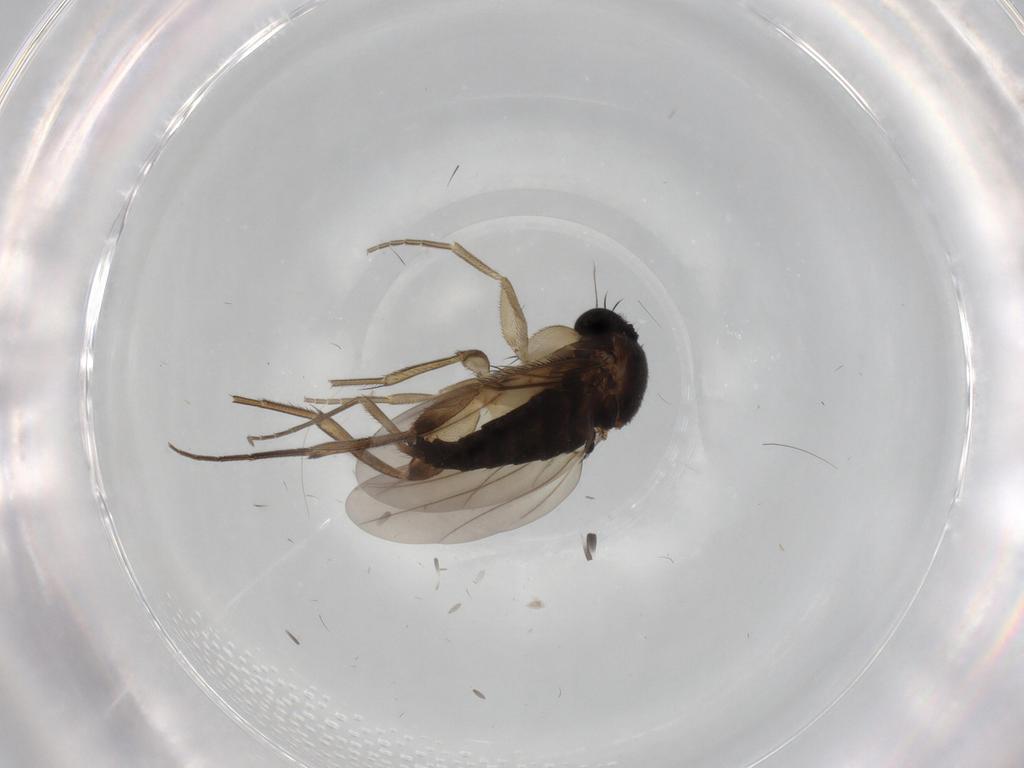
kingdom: Animalia
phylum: Arthropoda
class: Insecta
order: Diptera
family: Phoridae
